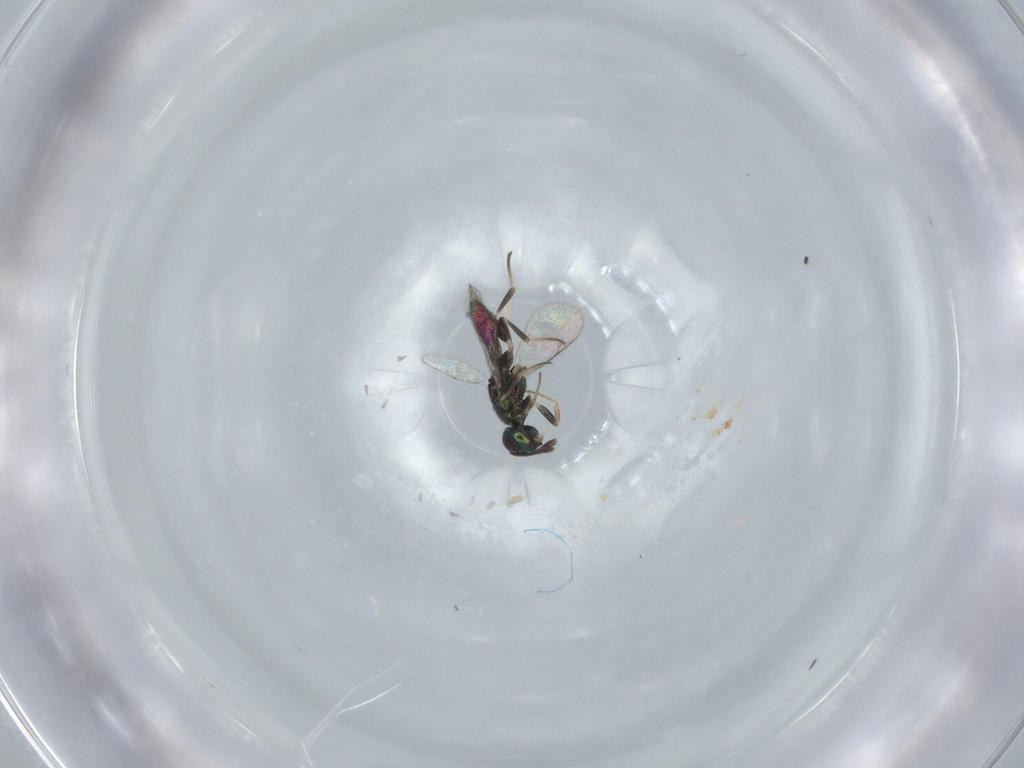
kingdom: Animalia
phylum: Arthropoda
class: Insecta
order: Hymenoptera
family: Eupelmidae
